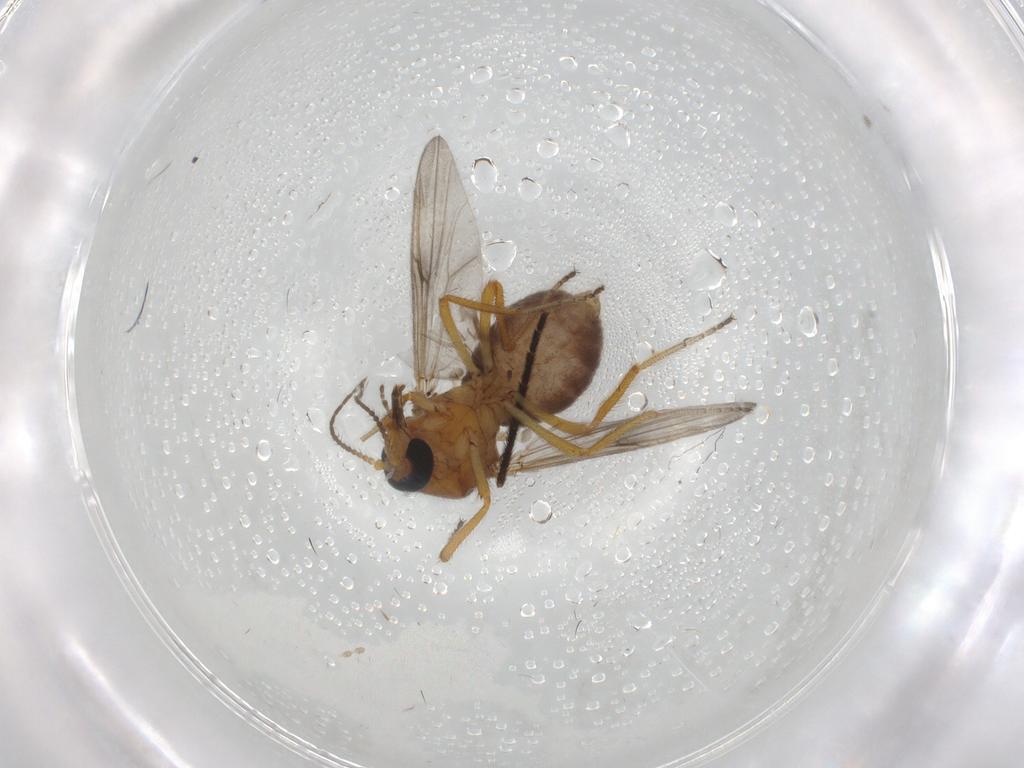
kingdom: Animalia
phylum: Arthropoda
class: Insecta
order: Diptera
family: Ceratopogonidae
